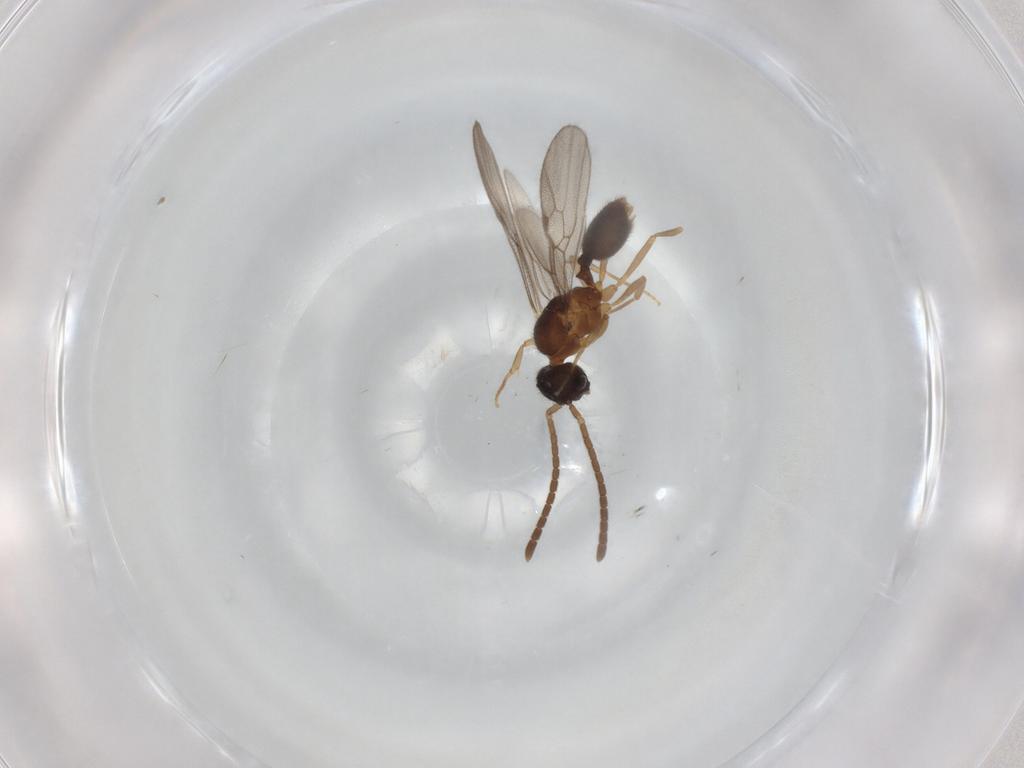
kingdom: Animalia
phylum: Arthropoda
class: Insecta
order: Hymenoptera
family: Formicidae
